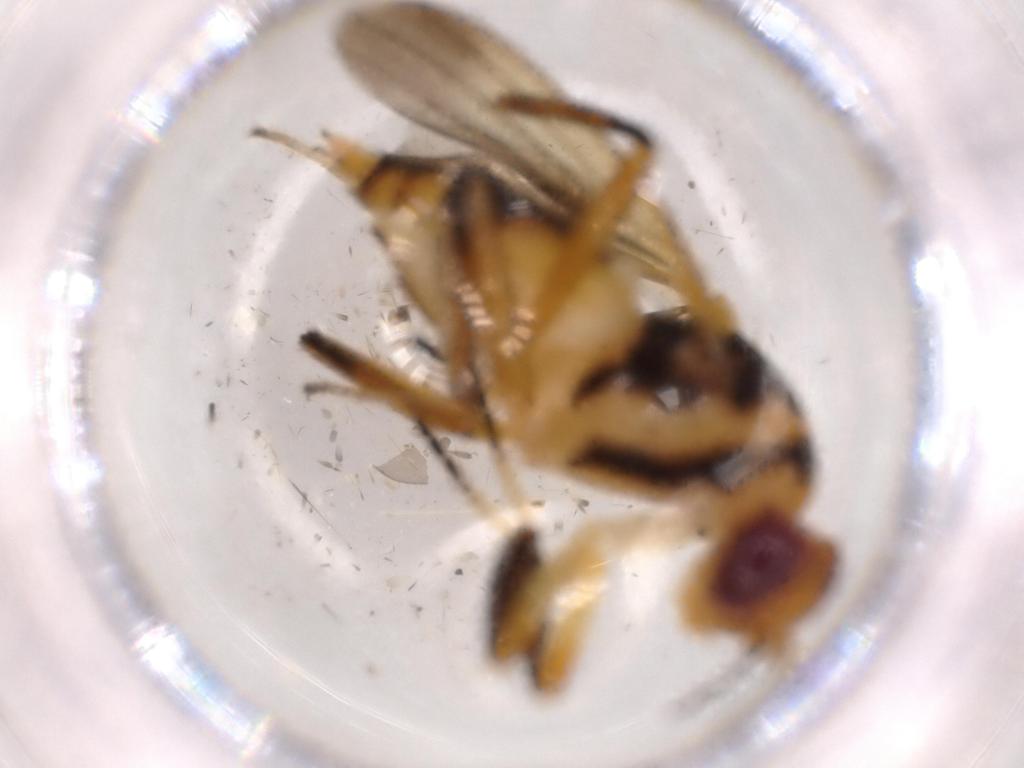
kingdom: Animalia
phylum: Arthropoda
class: Insecta
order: Diptera
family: Clusiidae
